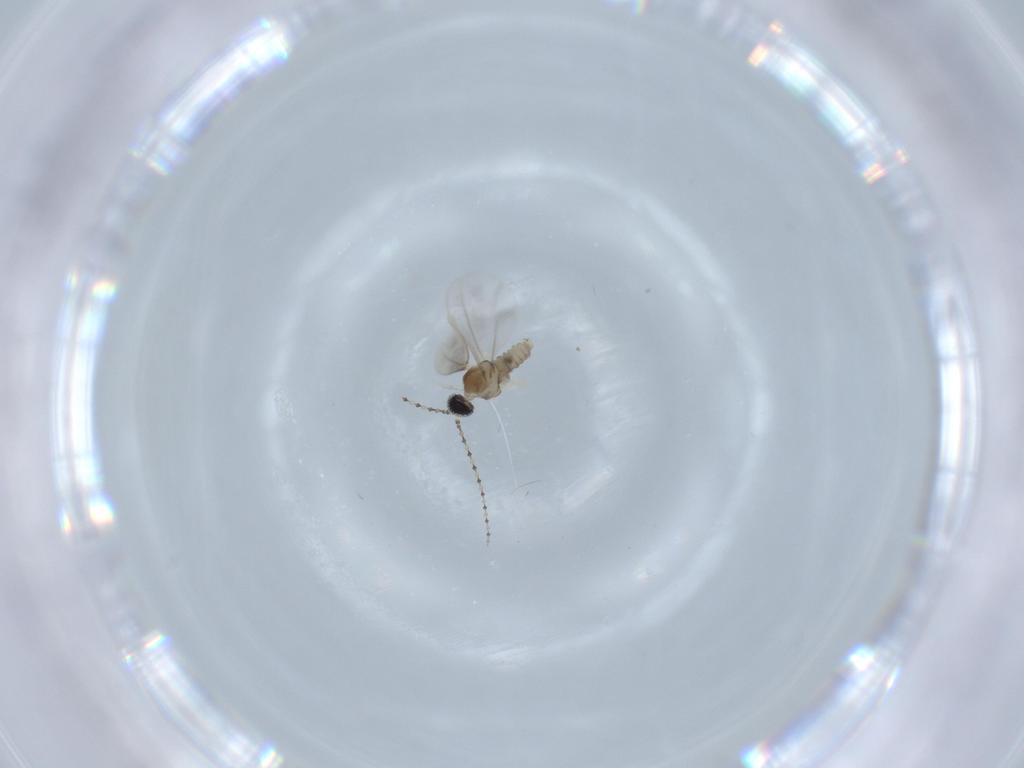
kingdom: Animalia
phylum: Arthropoda
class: Insecta
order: Diptera
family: Cecidomyiidae
